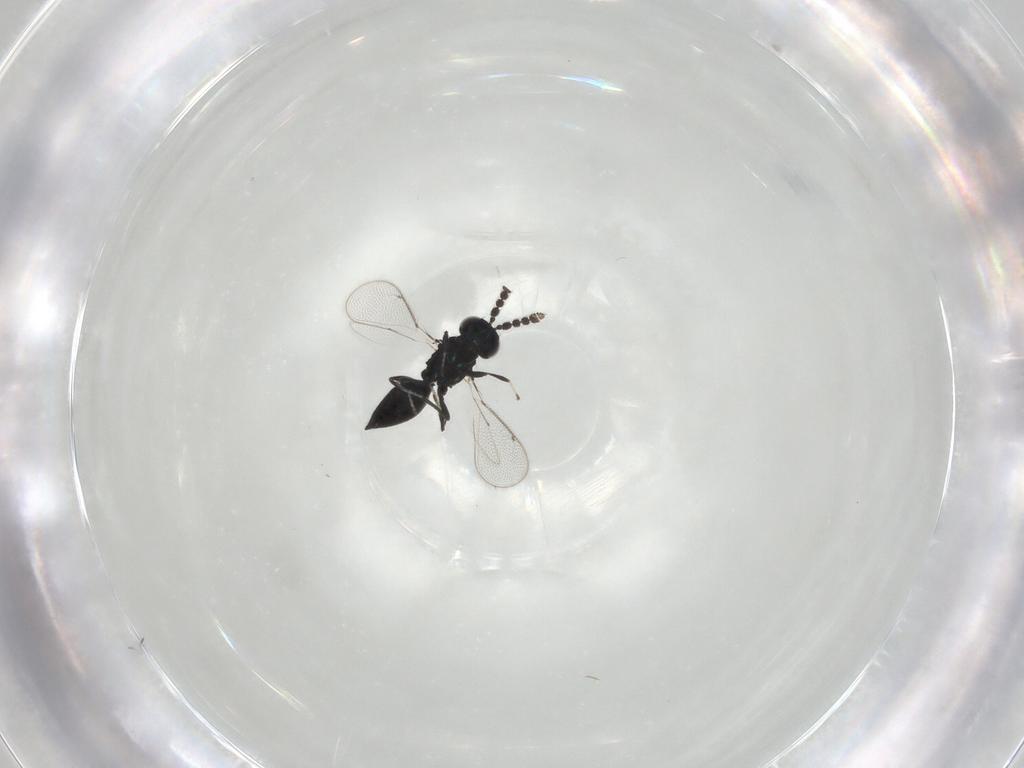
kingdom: Animalia
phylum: Arthropoda
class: Insecta
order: Hymenoptera
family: Eulophidae
